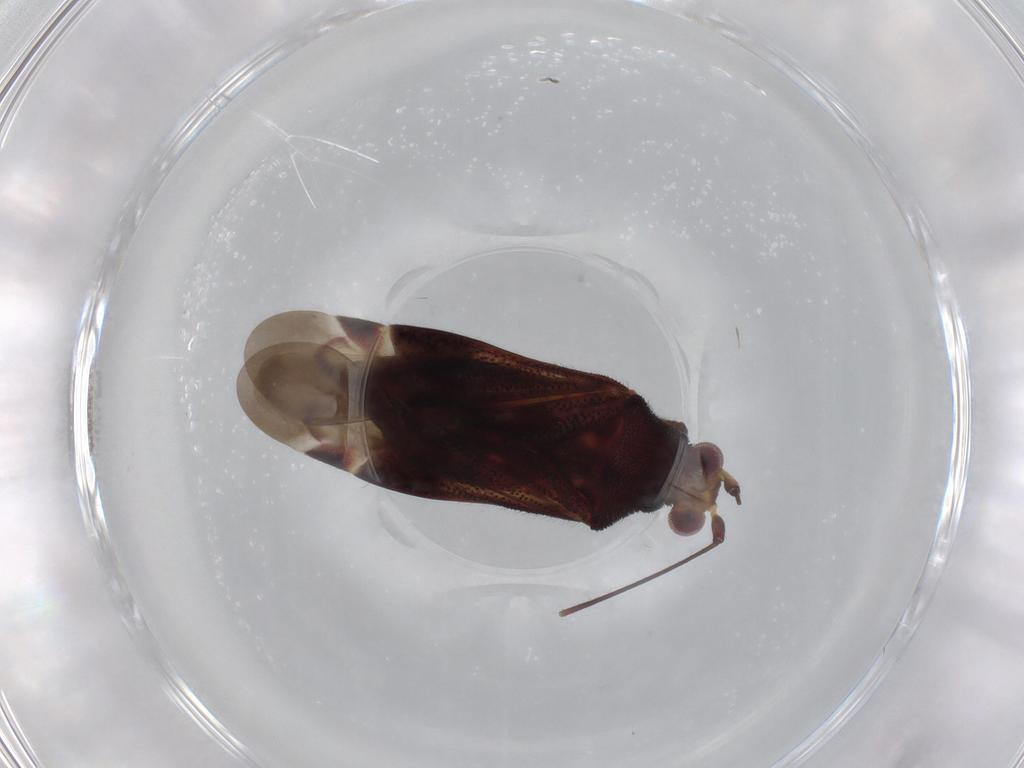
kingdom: Animalia
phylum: Arthropoda
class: Insecta
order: Hemiptera
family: Miridae
